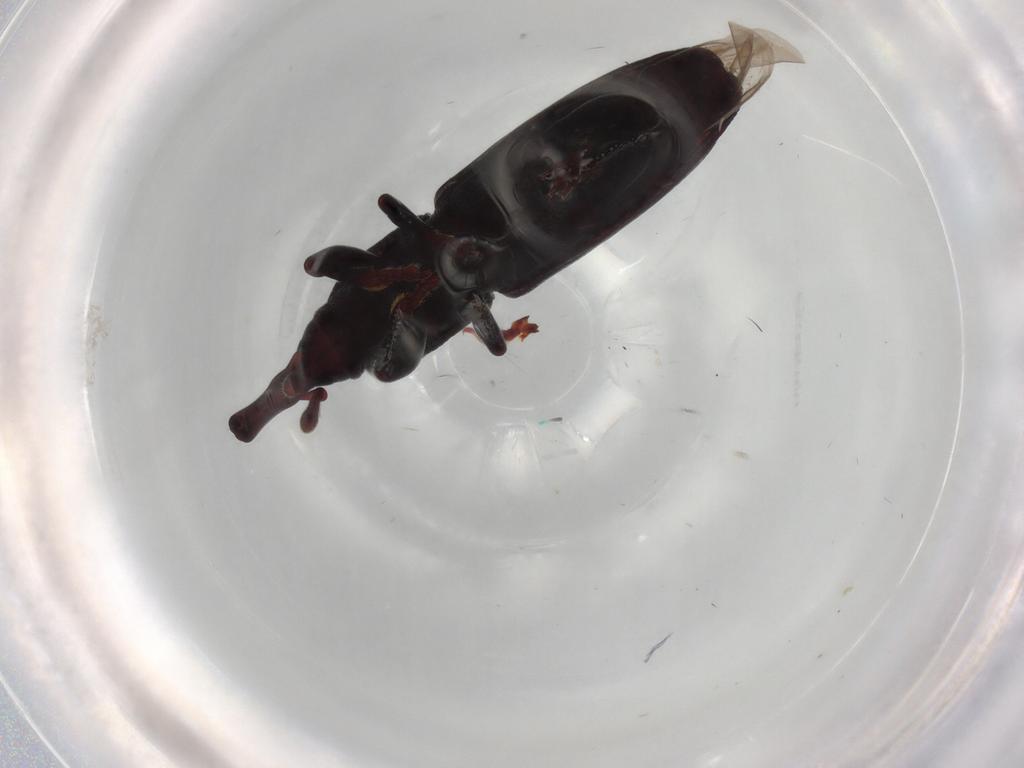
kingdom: Animalia
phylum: Arthropoda
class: Insecta
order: Coleoptera
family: Curculionidae
